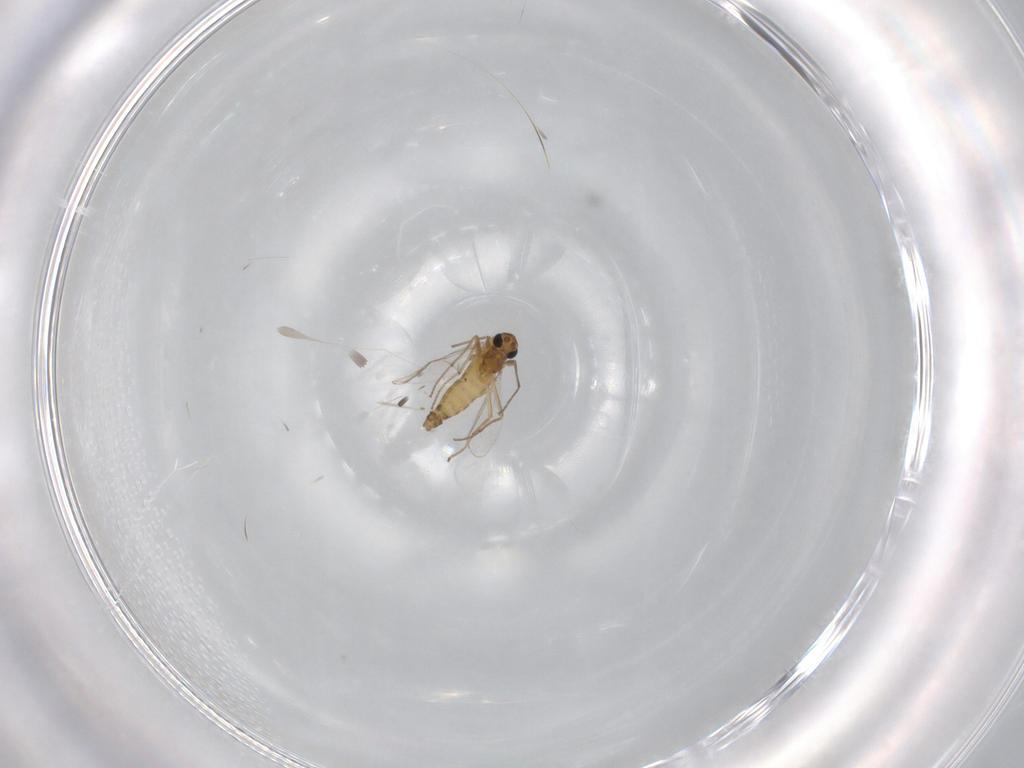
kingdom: Animalia
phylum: Arthropoda
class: Insecta
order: Diptera
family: Chironomidae
